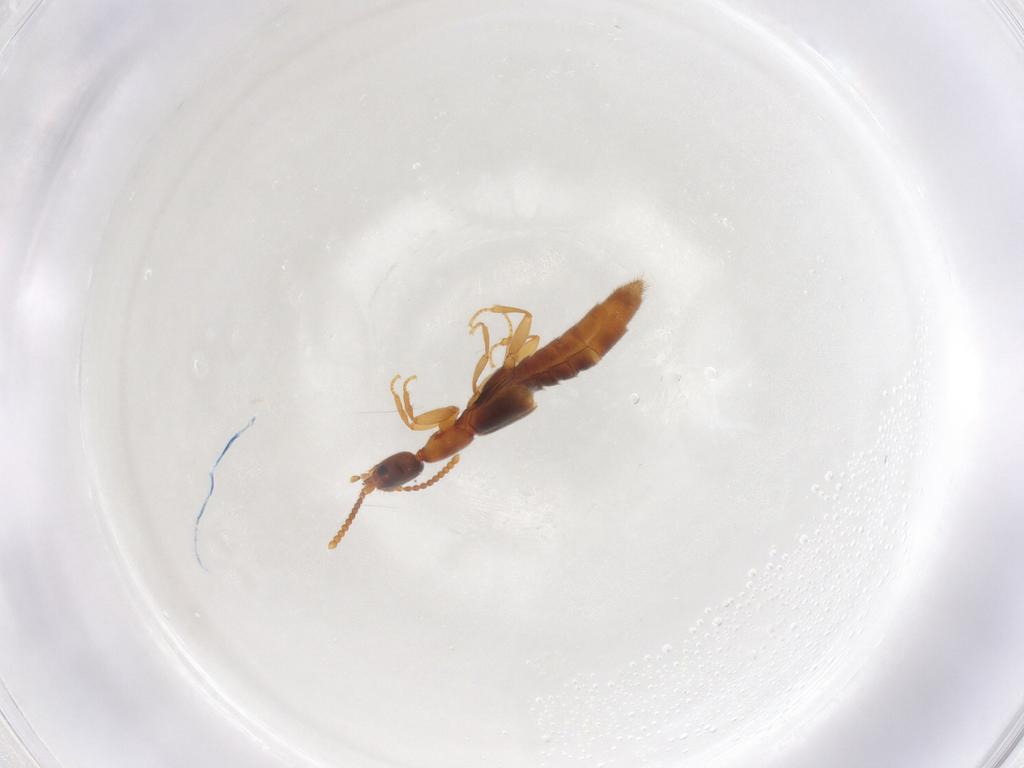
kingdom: Animalia
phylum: Arthropoda
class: Insecta
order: Coleoptera
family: Staphylinidae
